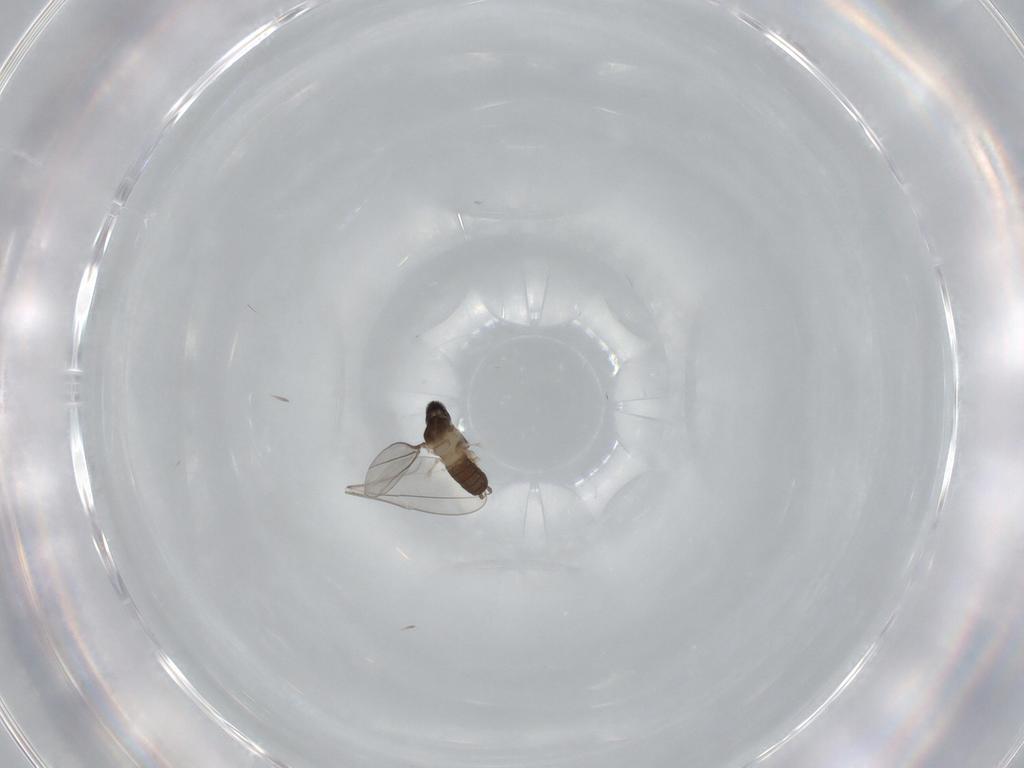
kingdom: Animalia
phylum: Arthropoda
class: Insecta
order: Diptera
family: Cecidomyiidae
